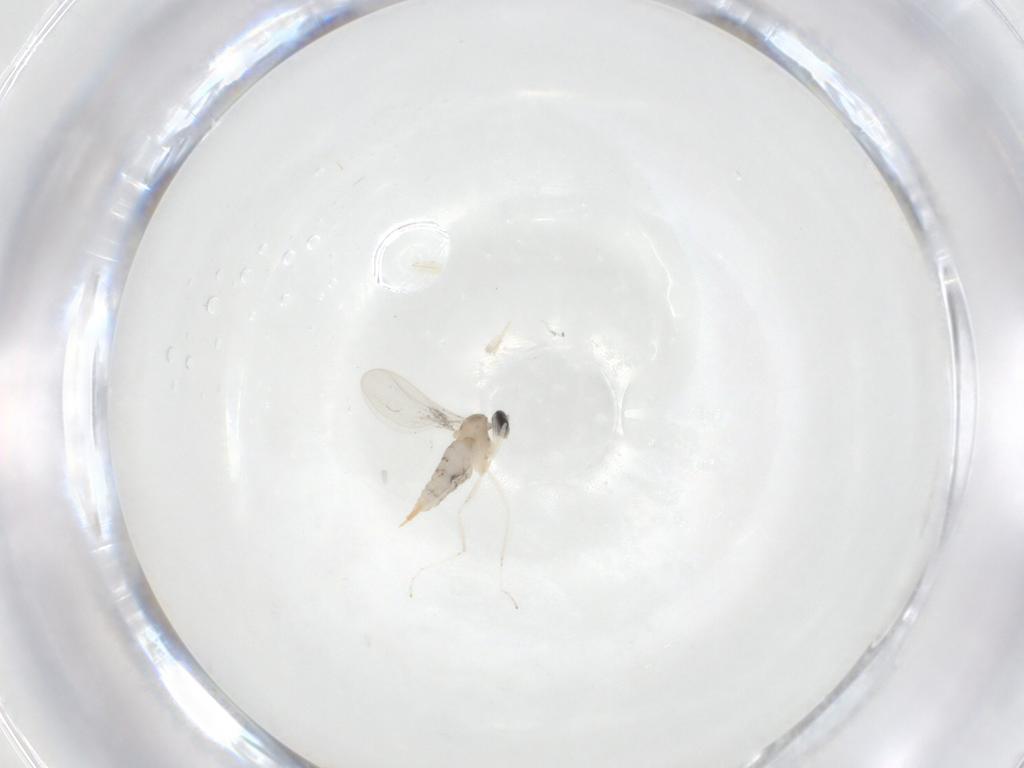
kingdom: Animalia
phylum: Arthropoda
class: Insecta
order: Diptera
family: Cecidomyiidae
